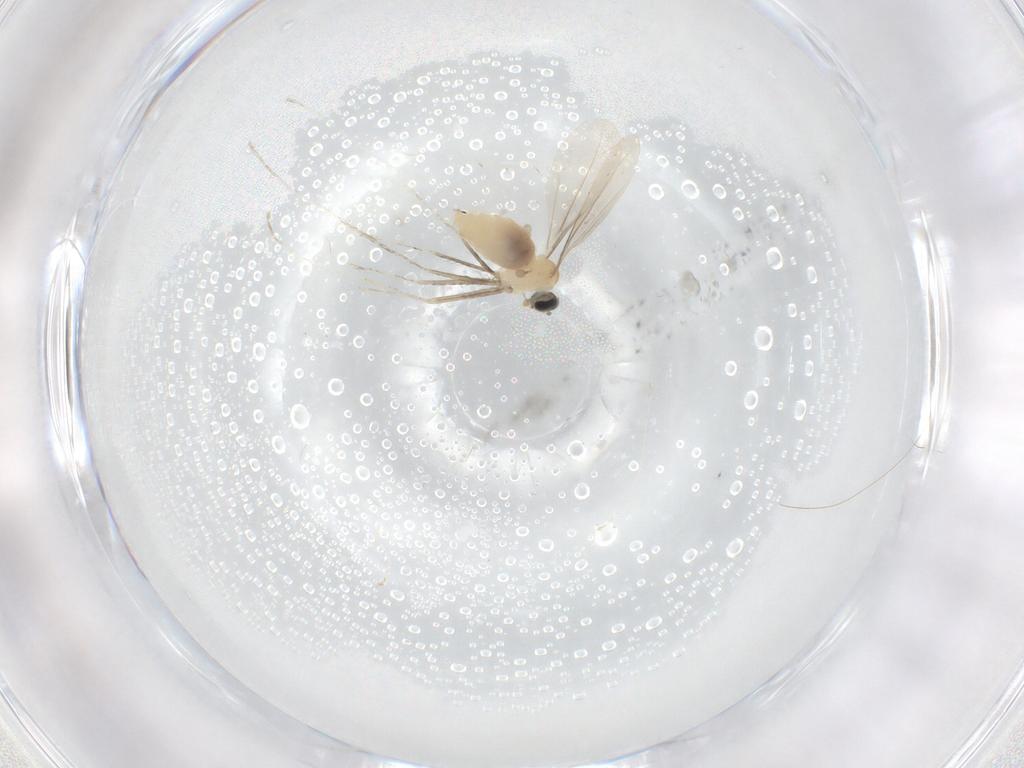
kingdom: Animalia
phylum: Arthropoda
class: Insecta
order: Diptera
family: Cecidomyiidae
